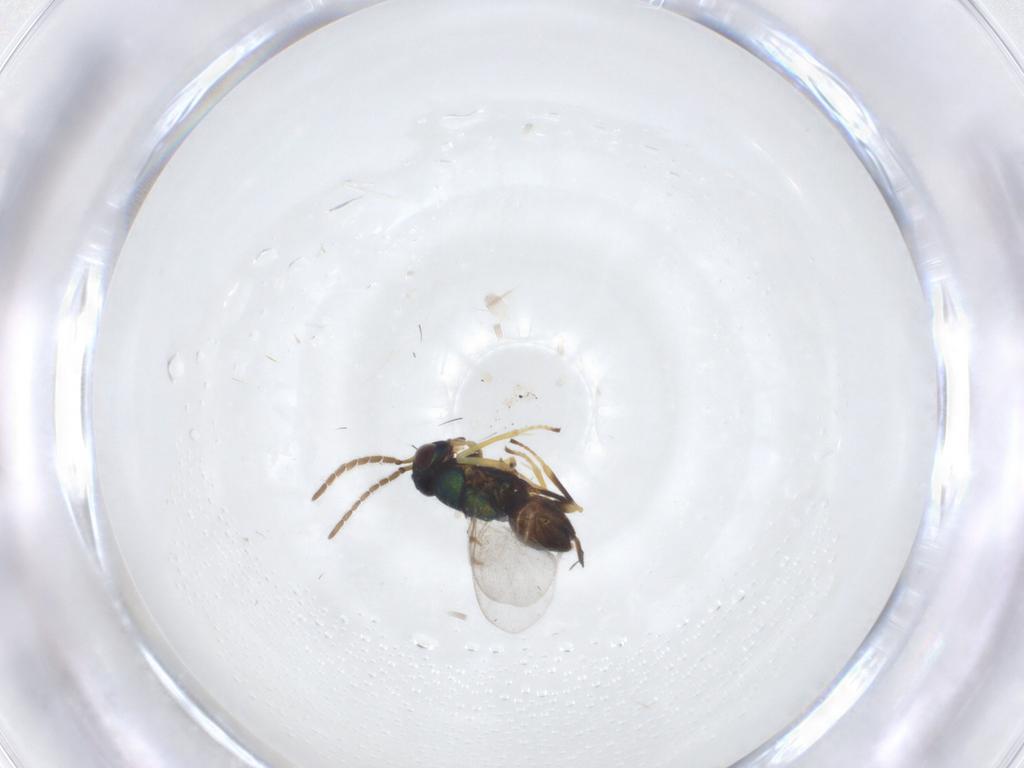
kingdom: Animalia
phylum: Arthropoda
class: Insecta
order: Hymenoptera
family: Encyrtidae
